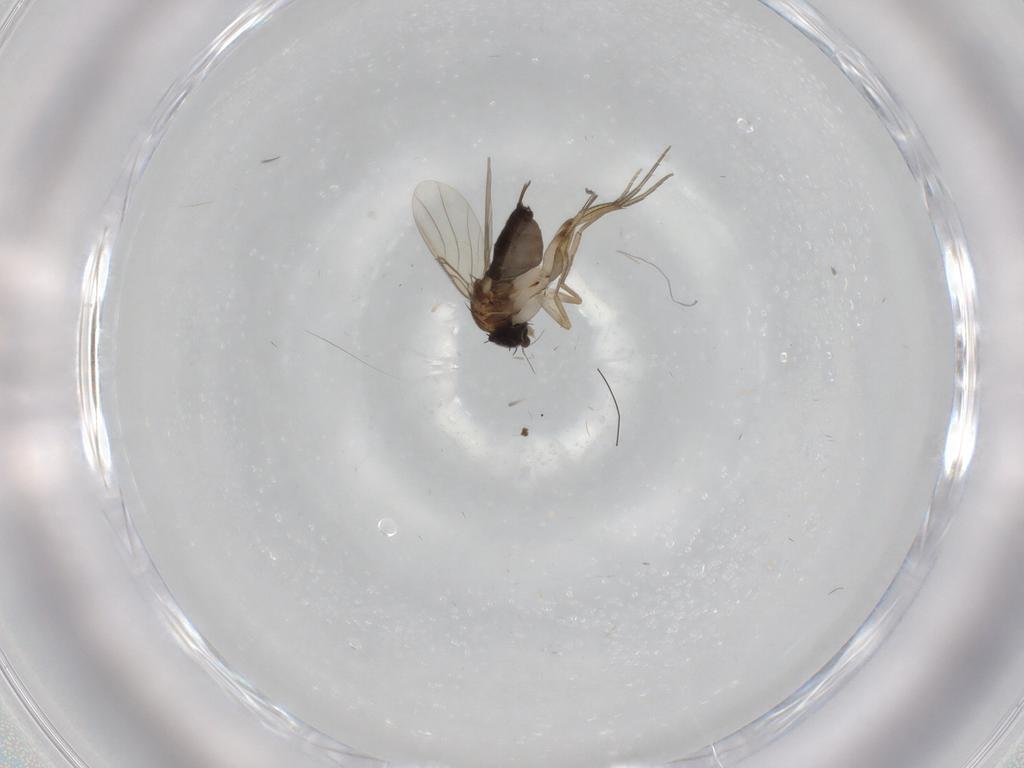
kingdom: Animalia
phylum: Arthropoda
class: Insecta
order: Diptera
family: Phoridae
